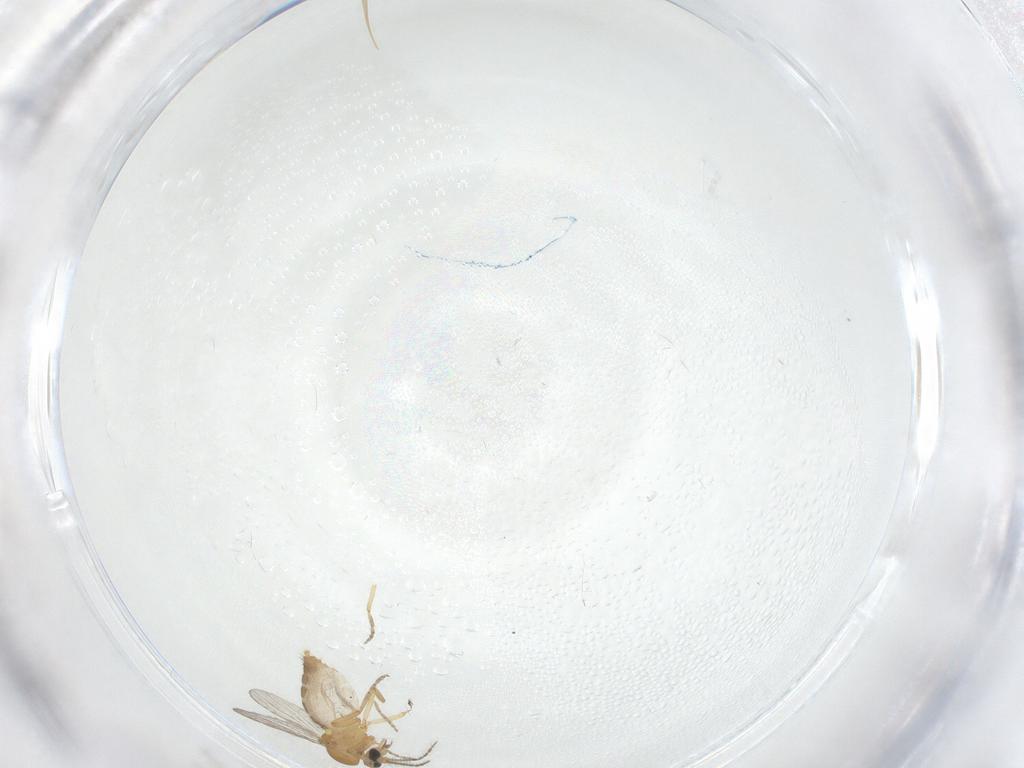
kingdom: Animalia
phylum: Arthropoda
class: Insecta
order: Diptera
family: Ceratopogonidae
